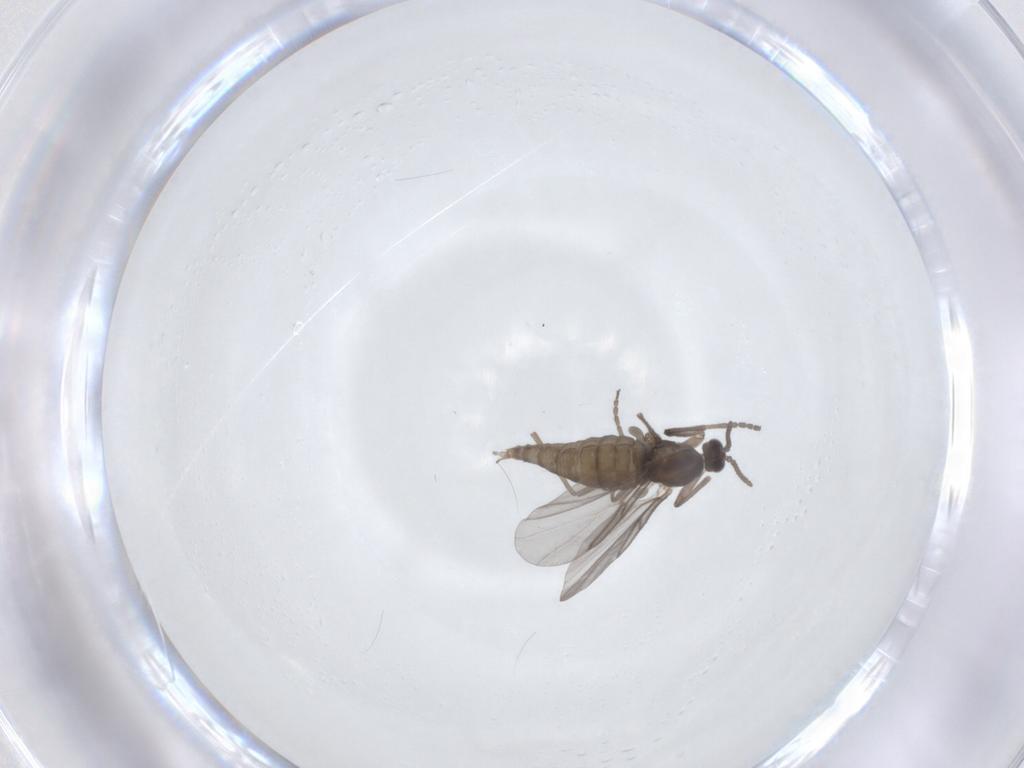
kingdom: Animalia
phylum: Arthropoda
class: Insecta
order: Diptera
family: Cecidomyiidae
